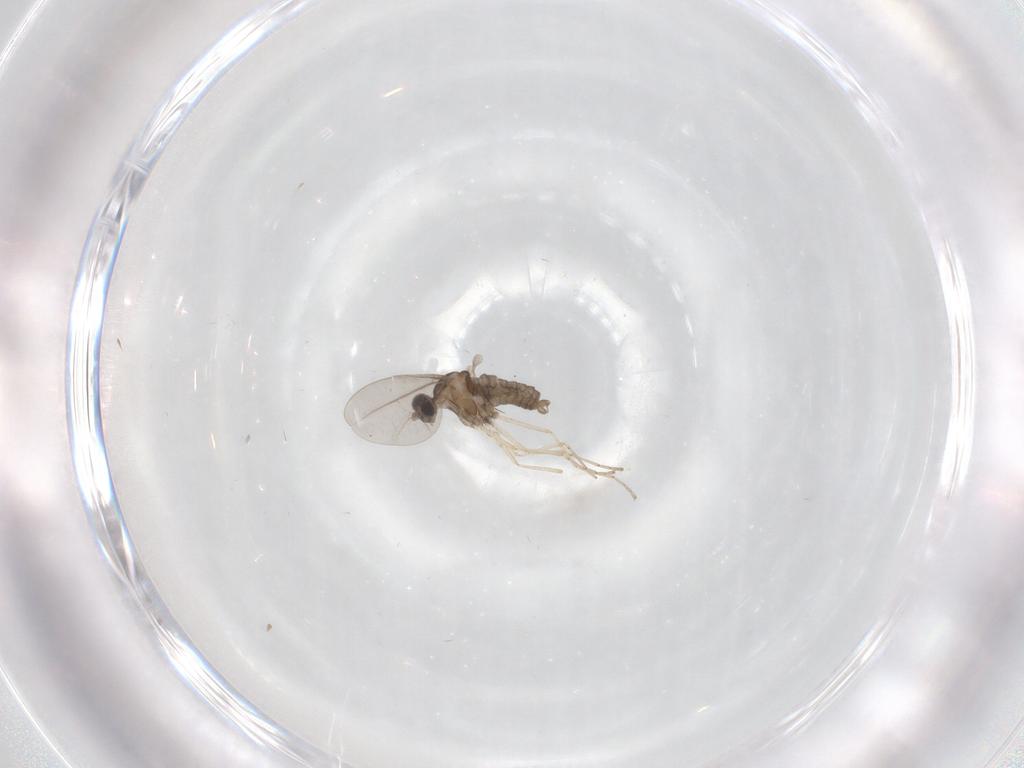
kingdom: Animalia
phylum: Arthropoda
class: Insecta
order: Diptera
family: Cecidomyiidae
